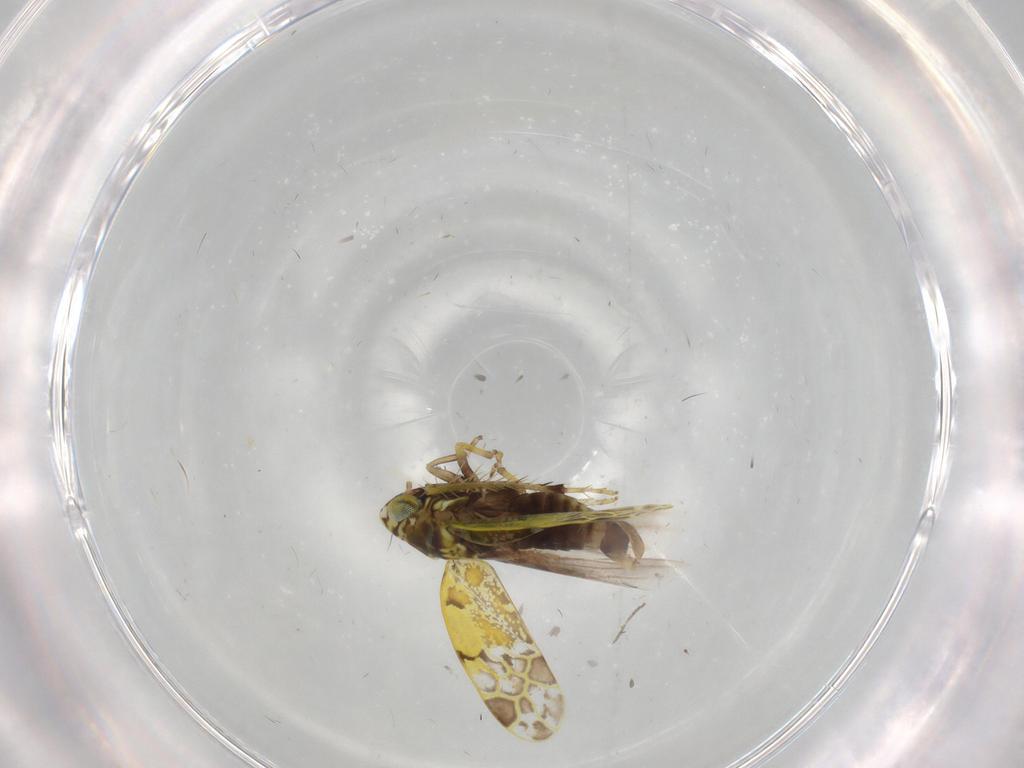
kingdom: Animalia
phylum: Arthropoda
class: Insecta
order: Hemiptera
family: Cicadellidae
